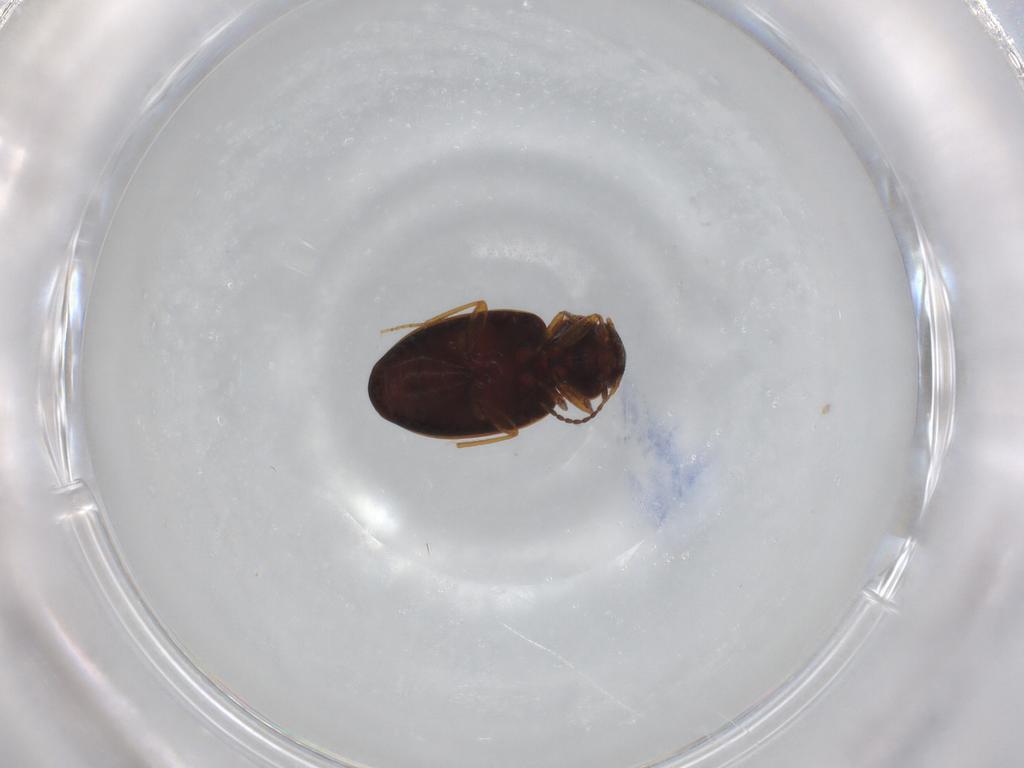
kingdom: Animalia
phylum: Arthropoda
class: Insecta
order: Coleoptera
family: Carabidae
